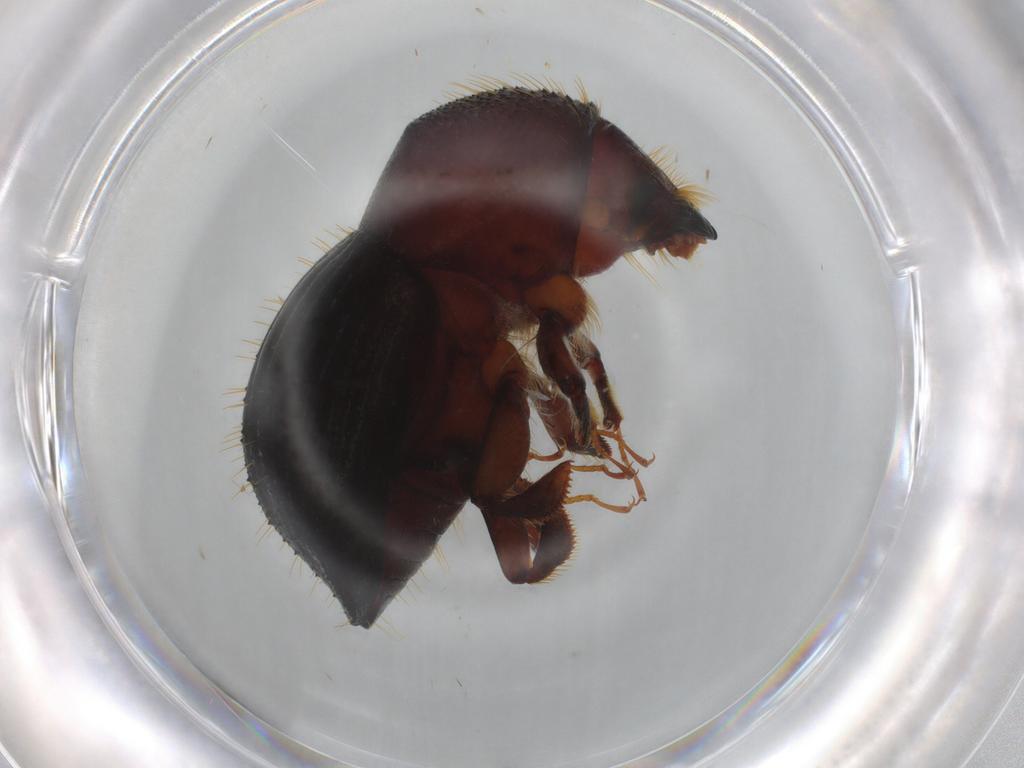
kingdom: Animalia
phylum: Arthropoda
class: Insecta
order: Coleoptera
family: Curculionidae
